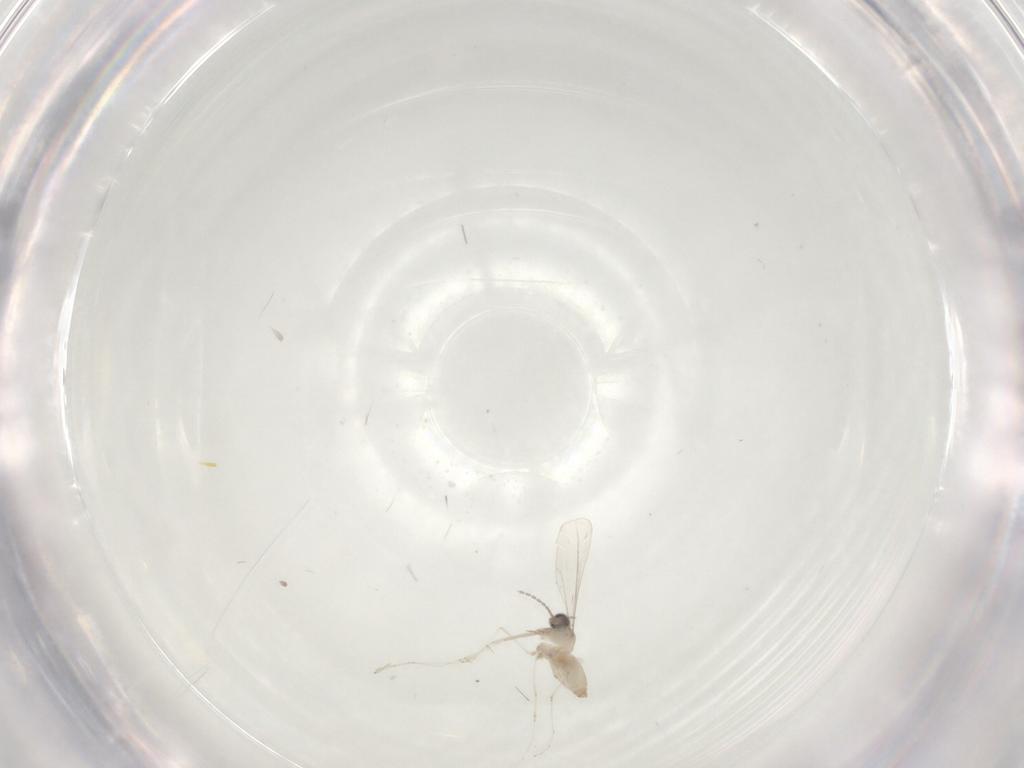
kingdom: Animalia
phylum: Arthropoda
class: Insecta
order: Diptera
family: Cecidomyiidae
